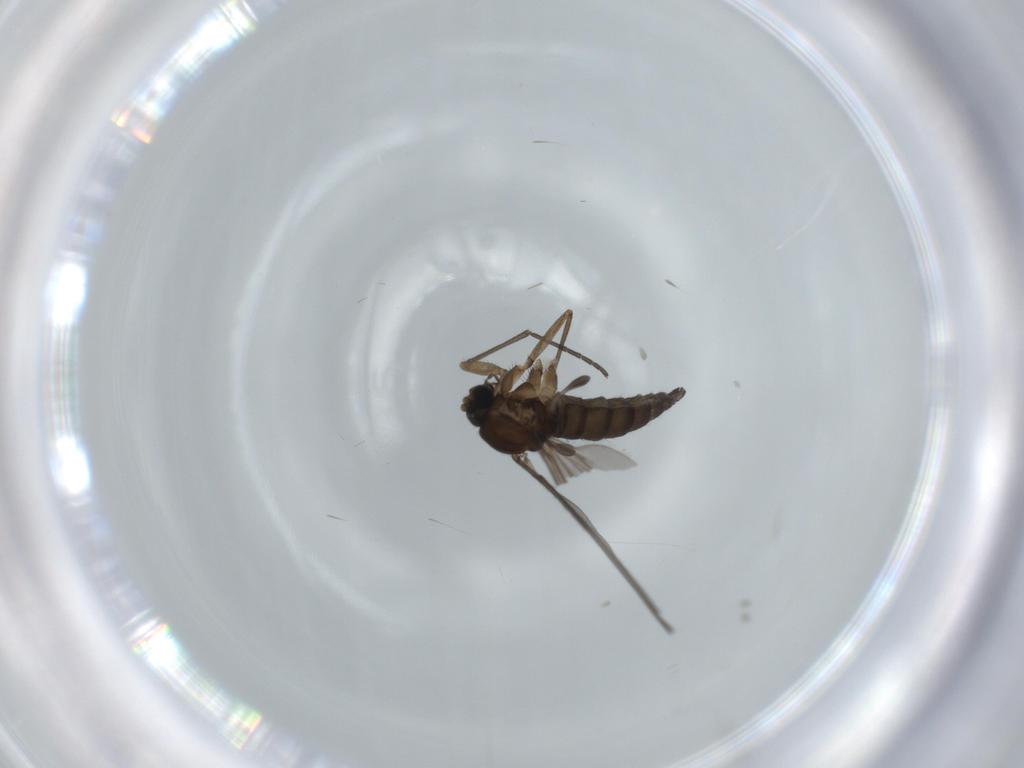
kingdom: Animalia
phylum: Arthropoda
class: Insecta
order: Diptera
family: Sciaridae
